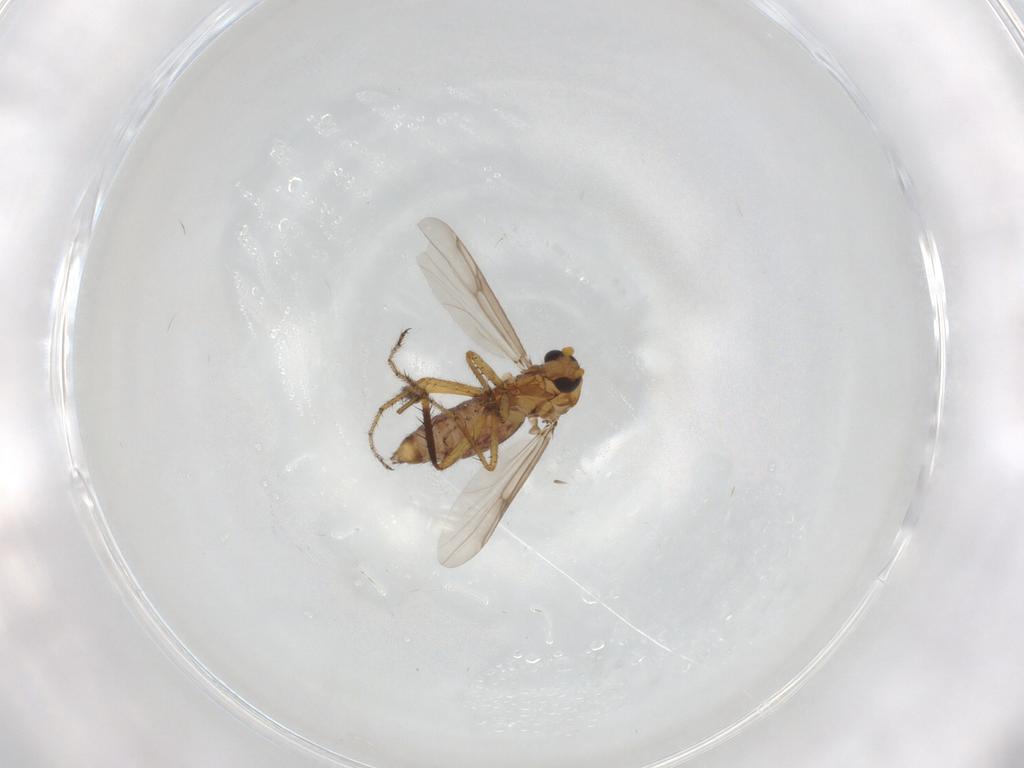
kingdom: Animalia
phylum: Arthropoda
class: Insecta
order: Diptera
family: Ceratopogonidae
